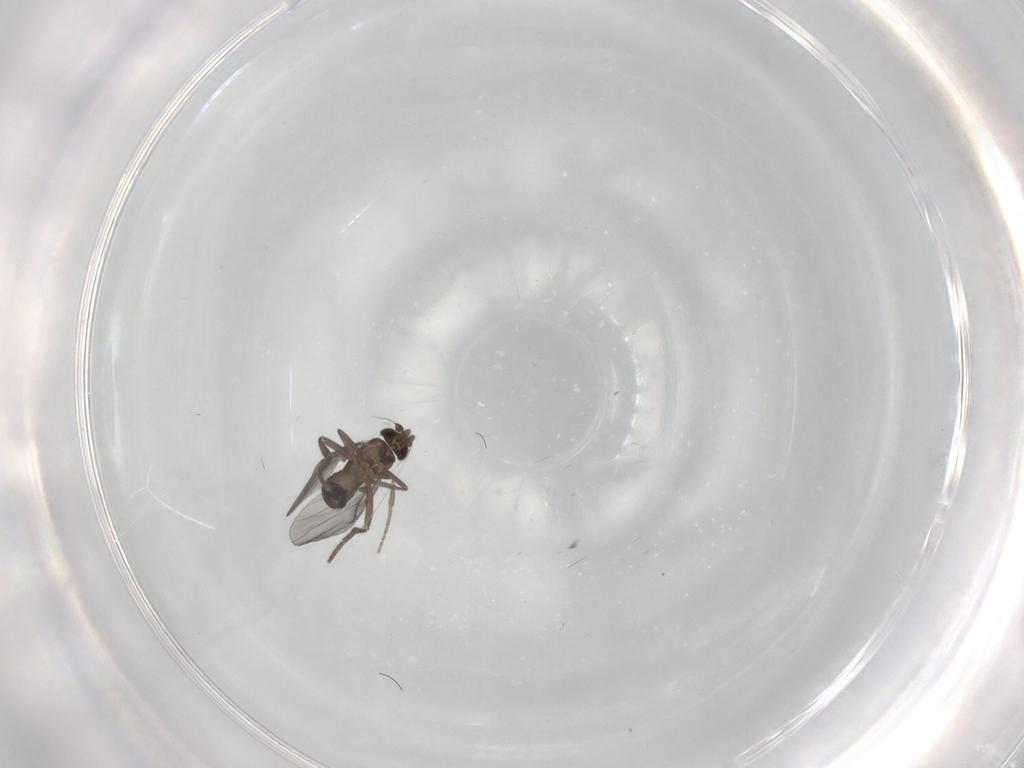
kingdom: Animalia
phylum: Arthropoda
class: Insecta
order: Diptera
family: Phoridae
